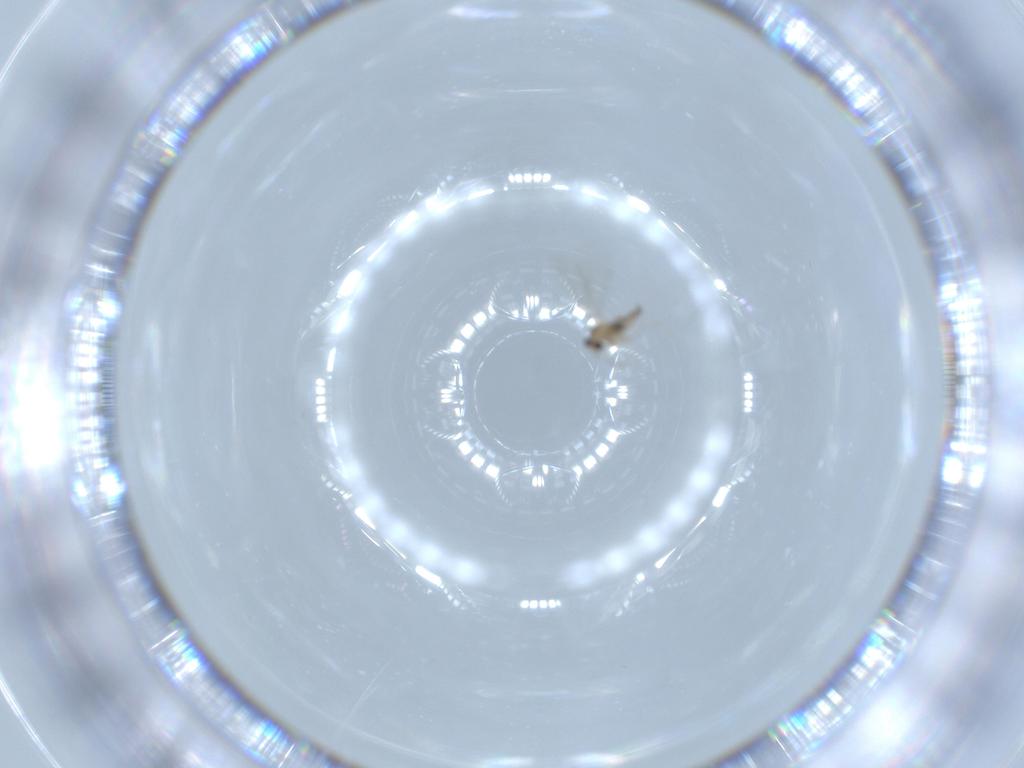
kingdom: Animalia
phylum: Arthropoda
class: Insecta
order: Diptera
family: Cecidomyiidae
